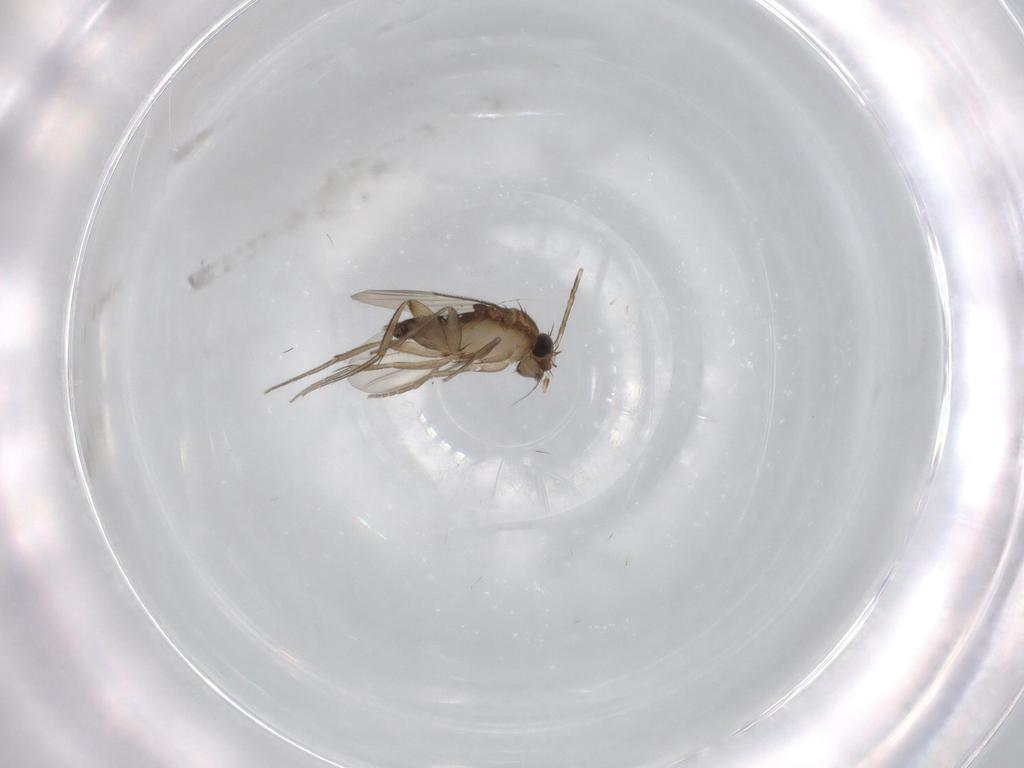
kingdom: Animalia
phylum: Arthropoda
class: Insecta
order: Diptera
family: Phoridae
